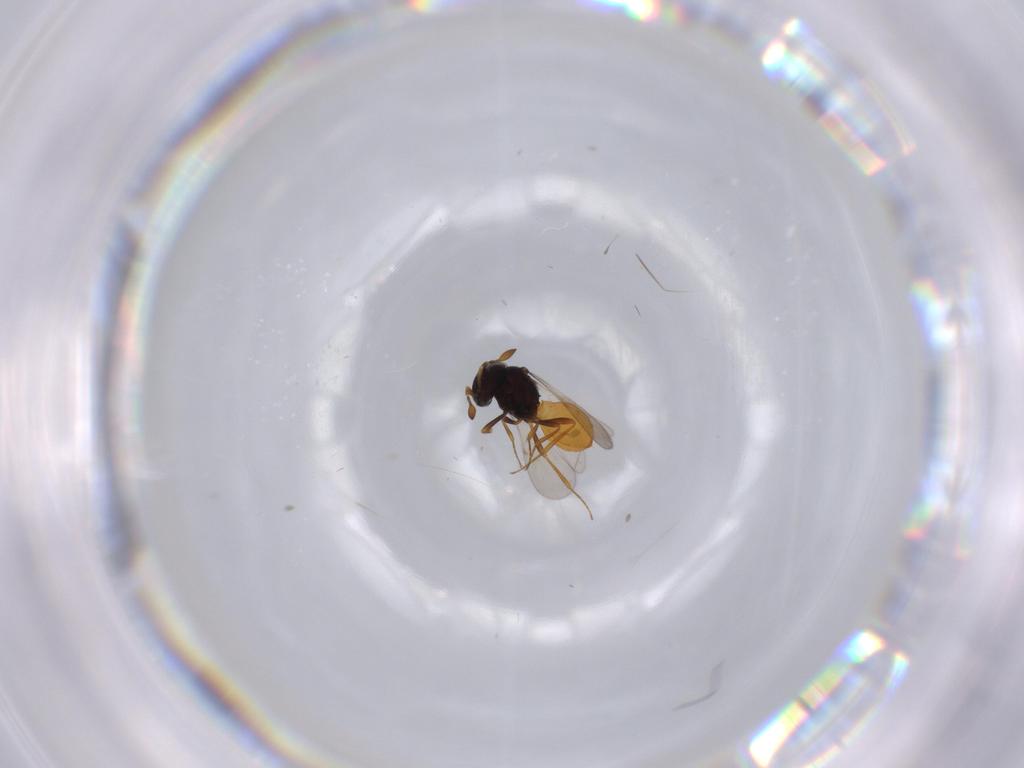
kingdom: Animalia
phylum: Arthropoda
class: Insecta
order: Hymenoptera
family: Scelionidae
